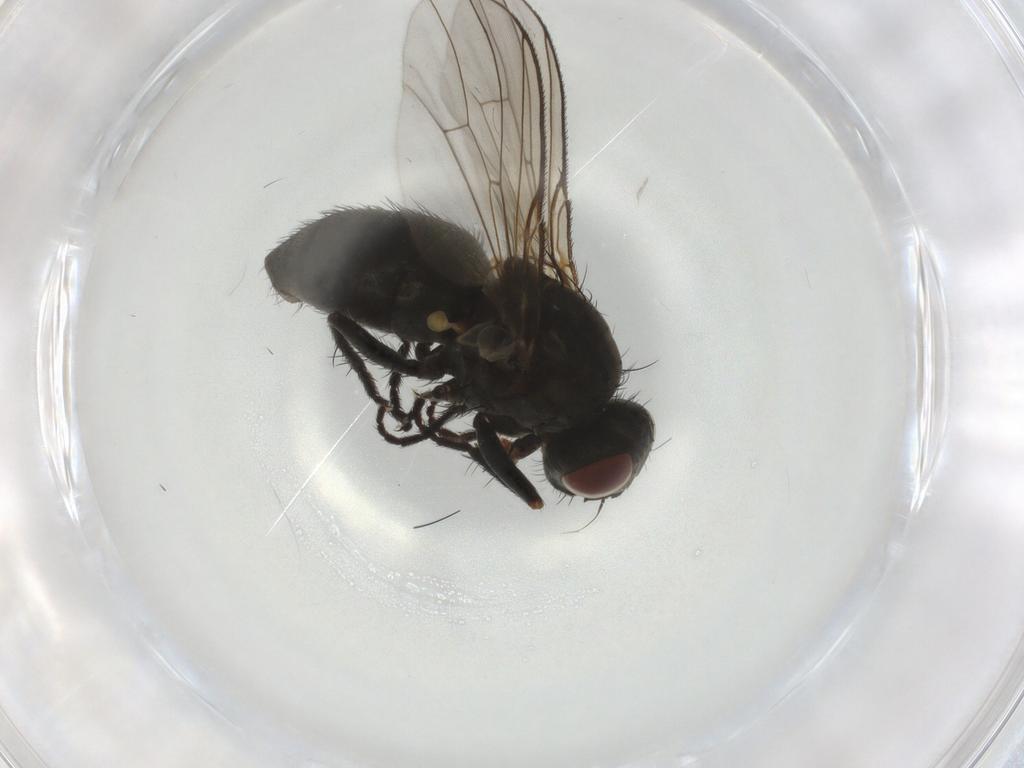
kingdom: Animalia
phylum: Arthropoda
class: Insecta
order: Diptera
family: Muscidae
